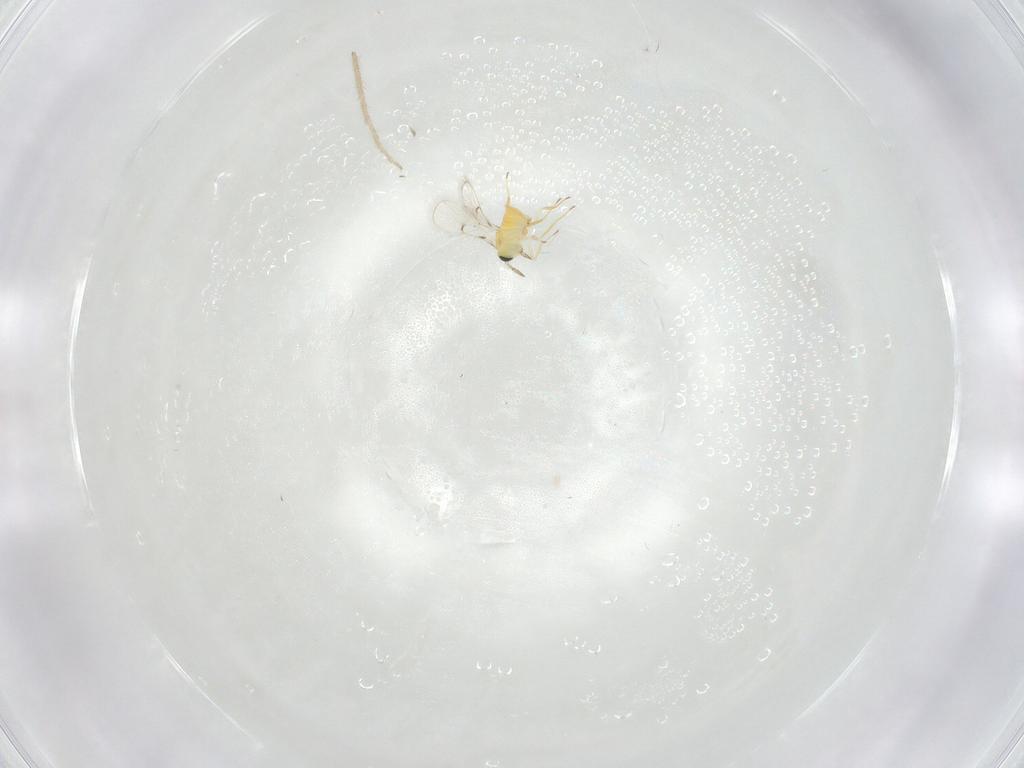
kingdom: Animalia
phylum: Arthropoda
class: Insecta
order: Hymenoptera
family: Trichogrammatidae
